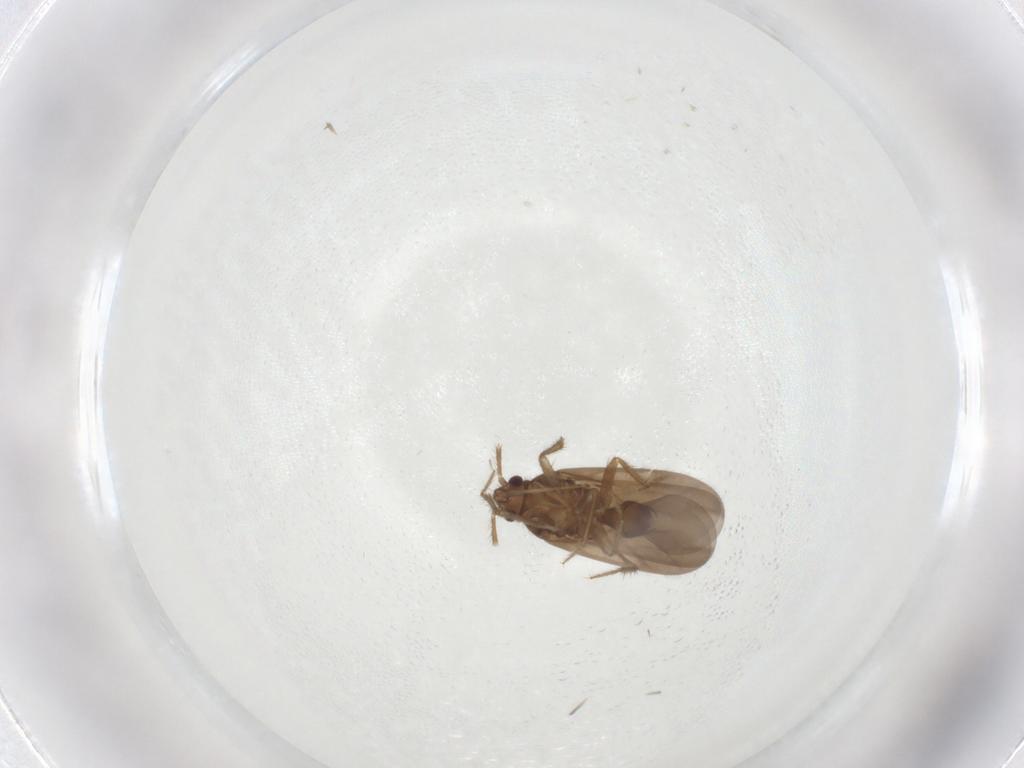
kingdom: Animalia
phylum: Arthropoda
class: Insecta
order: Hemiptera
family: Ceratocombidae
